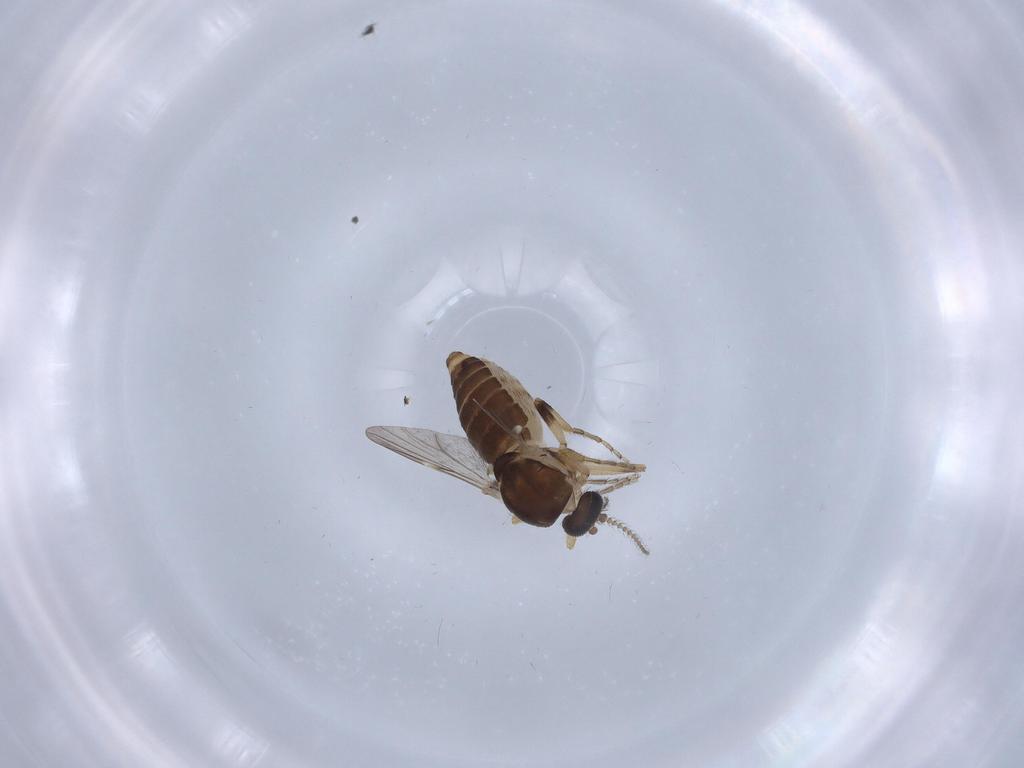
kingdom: Animalia
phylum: Arthropoda
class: Insecta
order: Diptera
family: Ceratopogonidae
